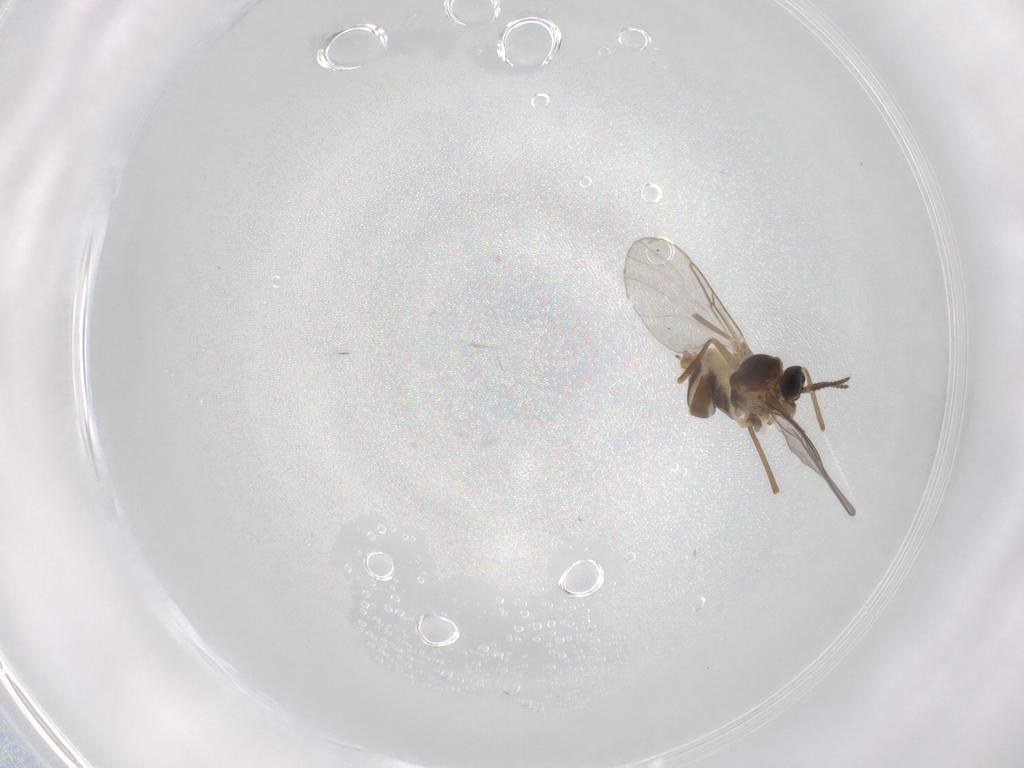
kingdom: Animalia
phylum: Arthropoda
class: Insecta
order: Diptera
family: Cecidomyiidae
